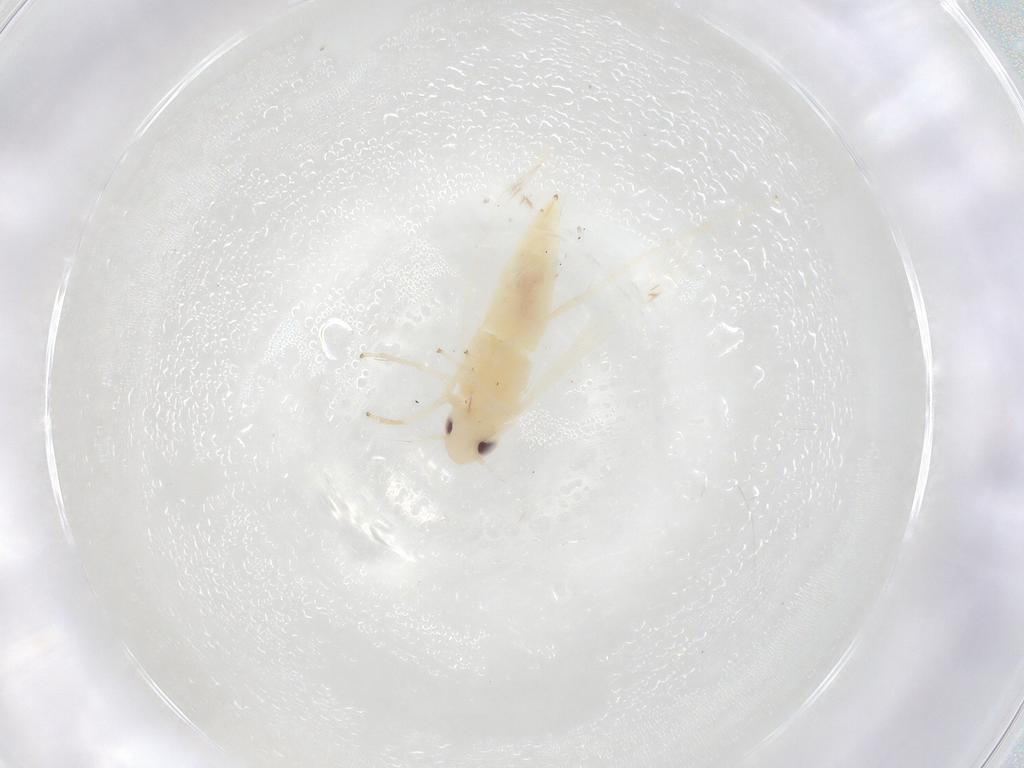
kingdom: Animalia
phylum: Arthropoda
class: Insecta
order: Hemiptera
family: Cicadellidae
